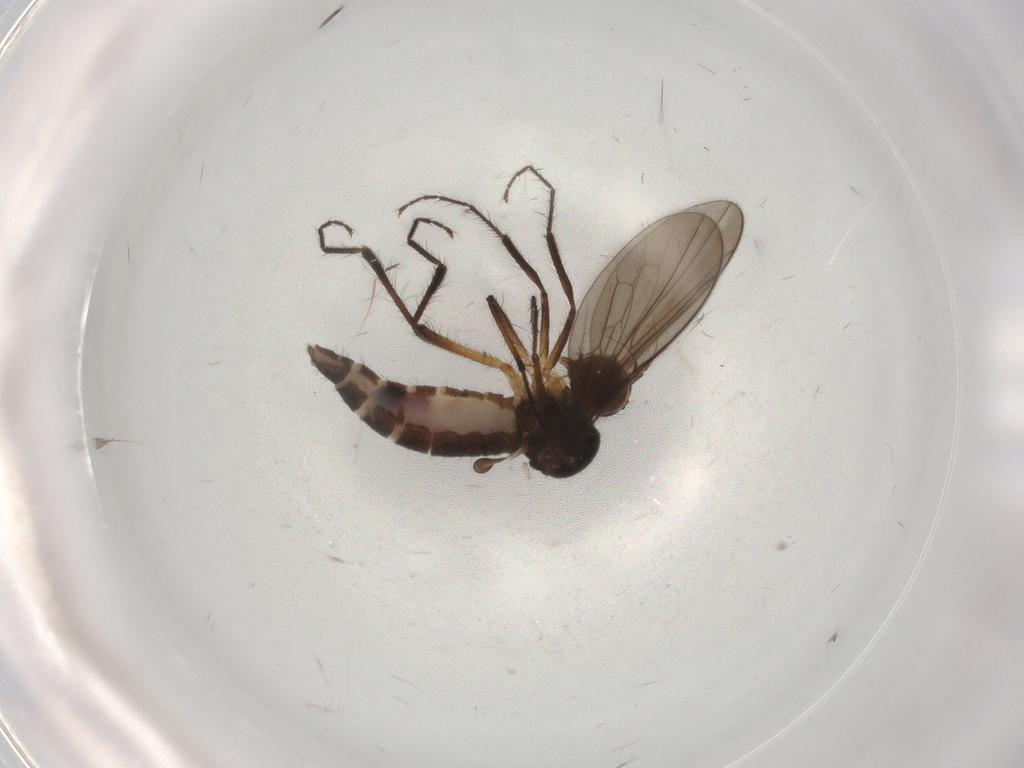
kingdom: Animalia
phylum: Arthropoda
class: Insecta
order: Diptera
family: Hybotidae
